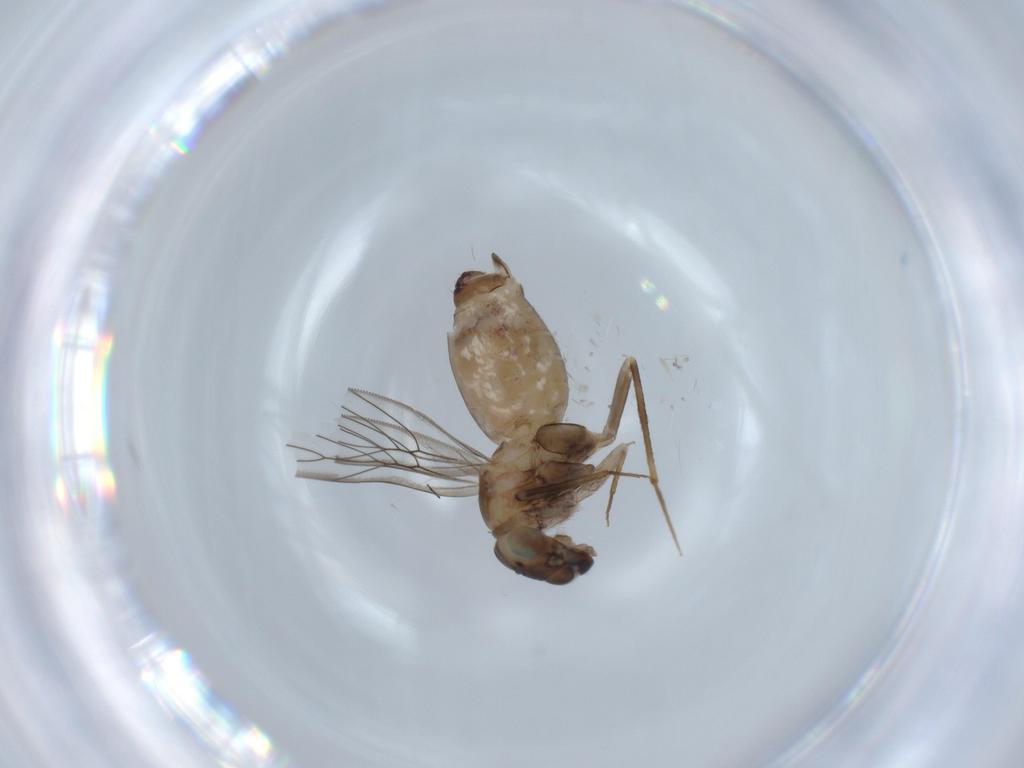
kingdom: Animalia
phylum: Arthropoda
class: Insecta
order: Psocodea
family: Lepidopsocidae
